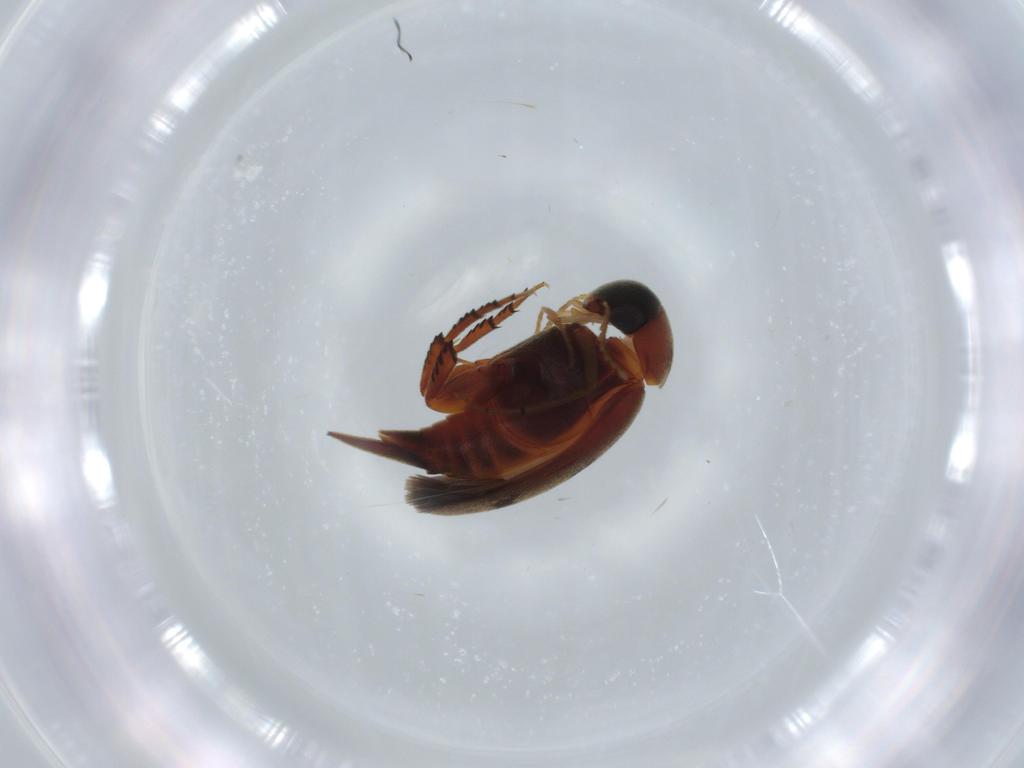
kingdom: Animalia
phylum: Arthropoda
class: Insecta
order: Coleoptera
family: Mordellidae
